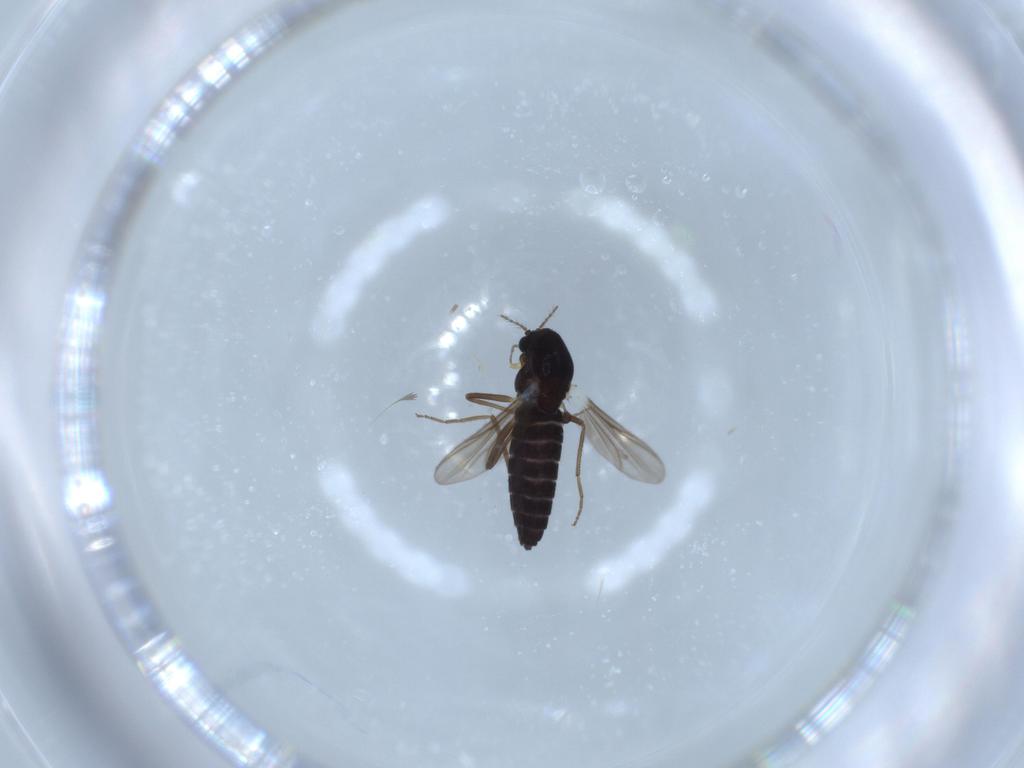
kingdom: Animalia
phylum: Arthropoda
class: Insecta
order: Diptera
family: Chironomidae
